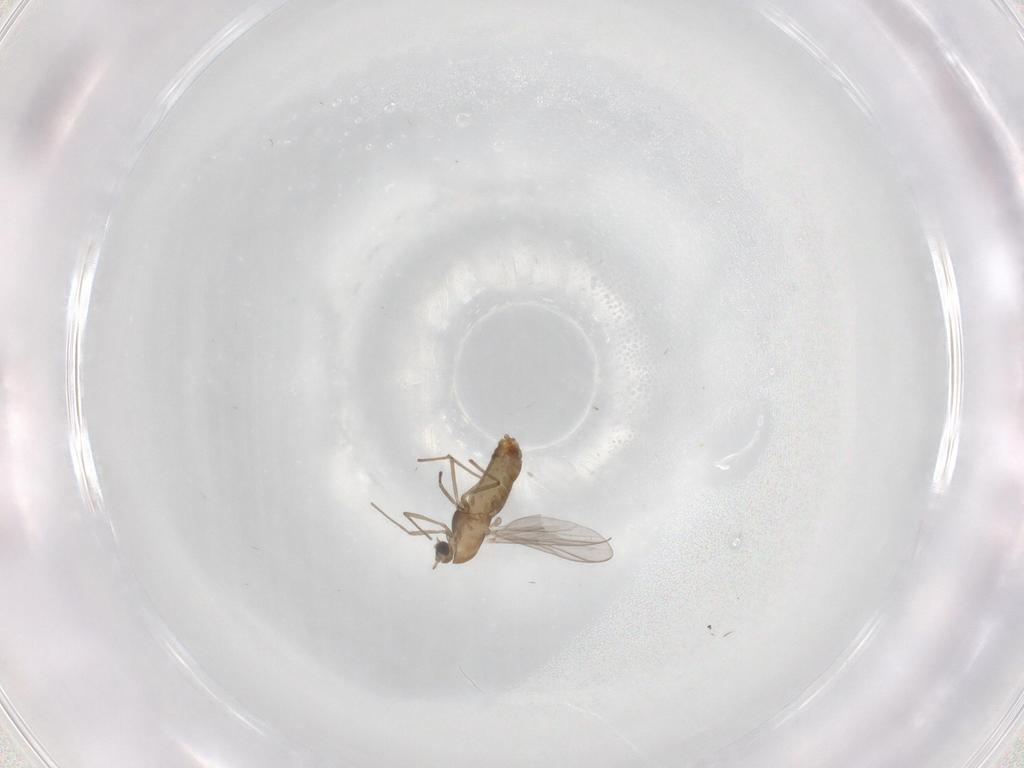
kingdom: Animalia
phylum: Arthropoda
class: Insecta
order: Diptera
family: Chironomidae
